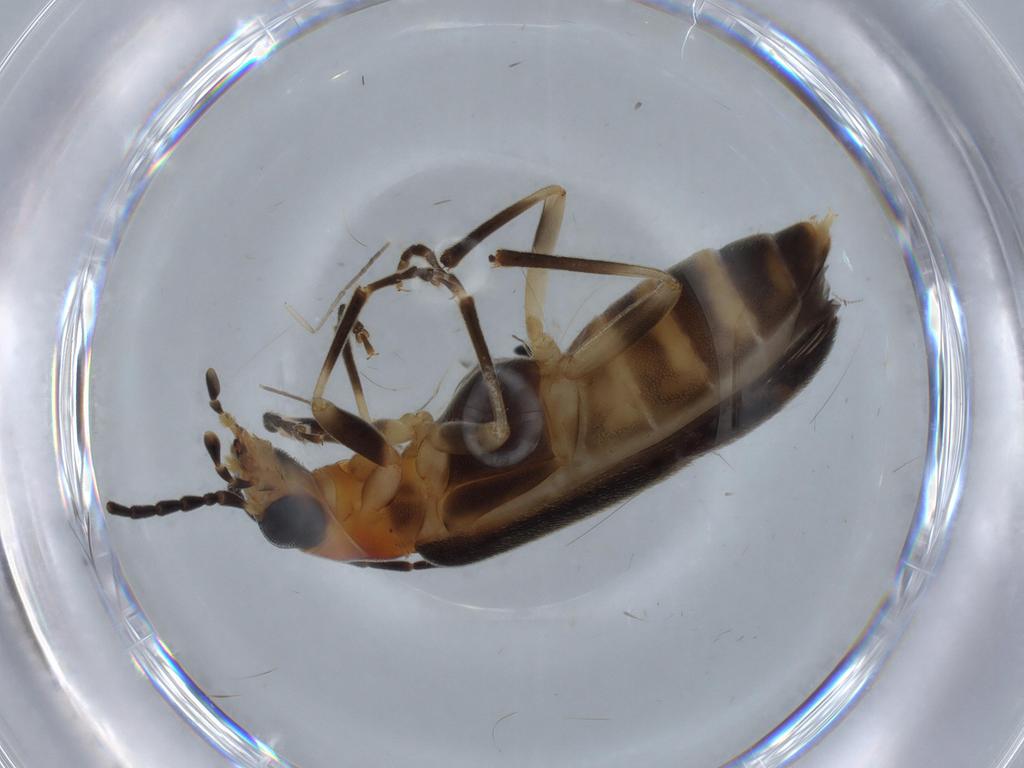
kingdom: Animalia
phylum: Arthropoda
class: Insecta
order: Coleoptera
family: Oedemeridae
